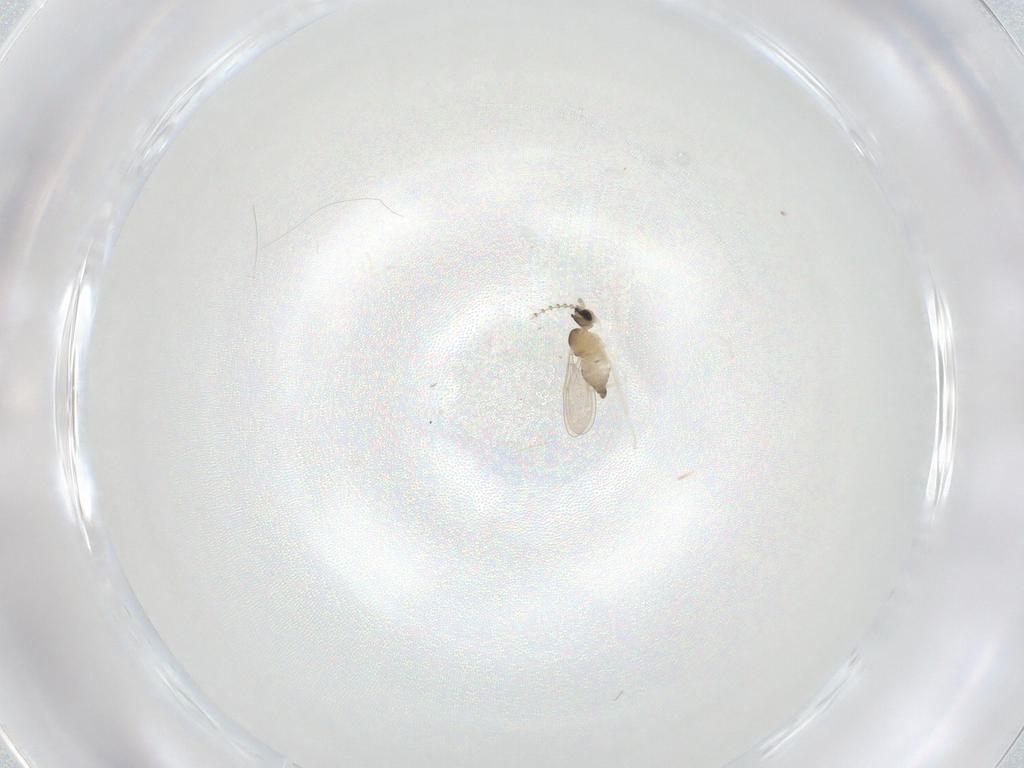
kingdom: Animalia
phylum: Arthropoda
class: Insecta
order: Diptera
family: Cecidomyiidae
